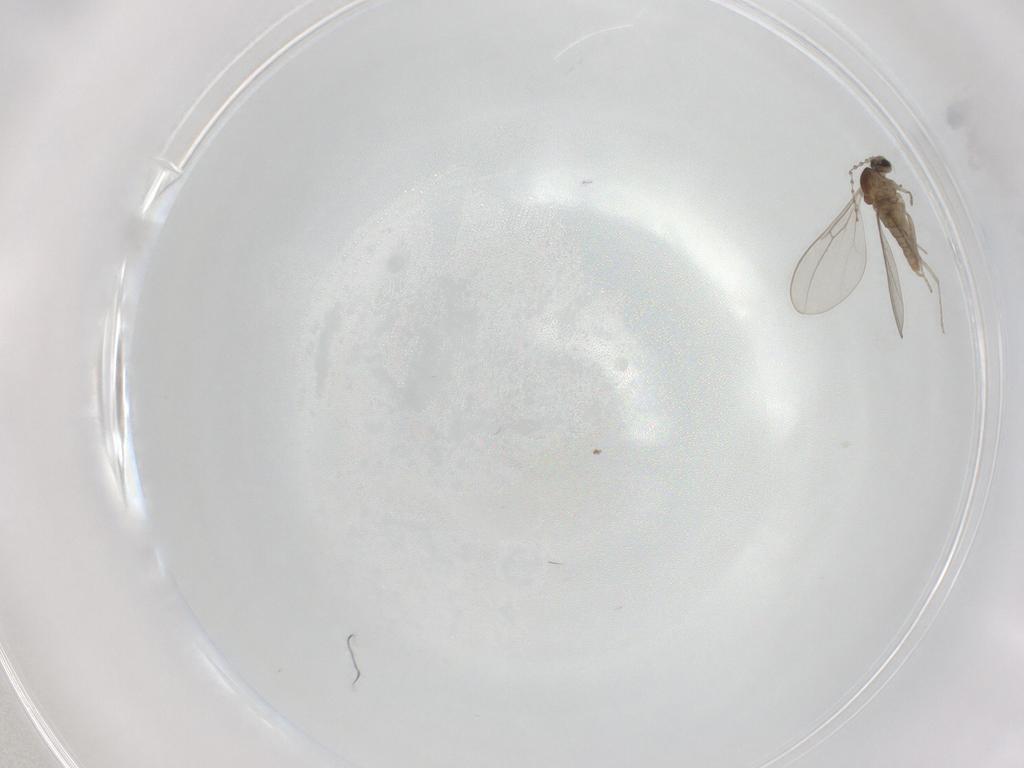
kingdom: Animalia
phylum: Arthropoda
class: Insecta
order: Diptera
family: Cecidomyiidae
